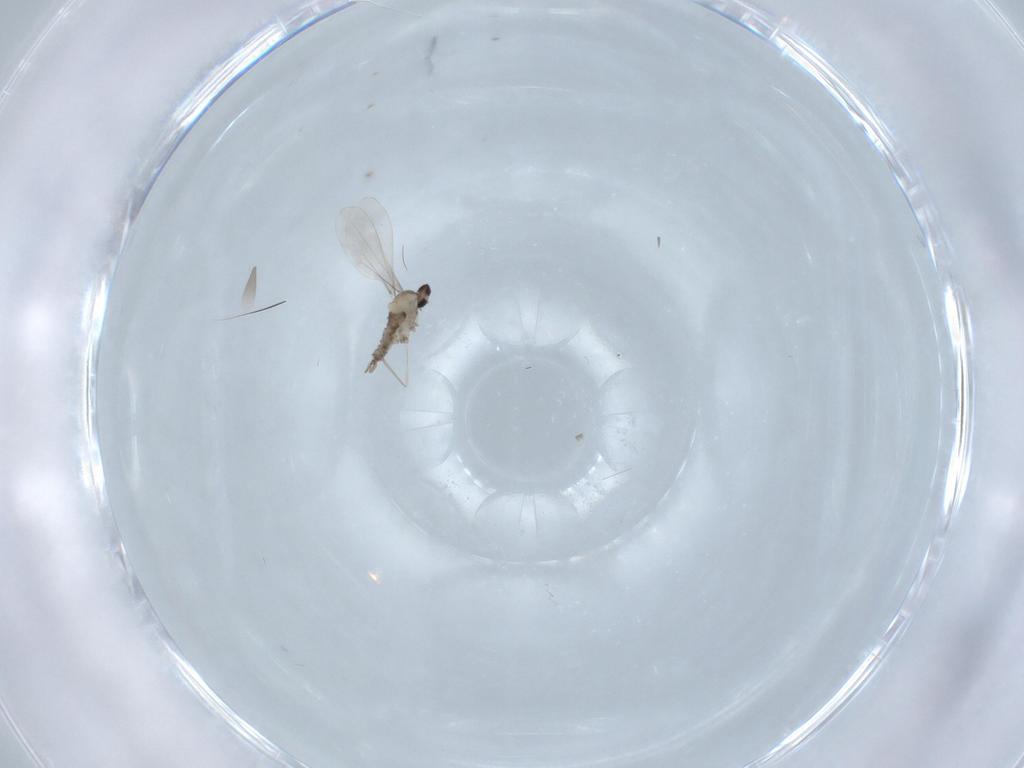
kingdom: Animalia
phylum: Arthropoda
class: Insecta
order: Diptera
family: Cecidomyiidae
